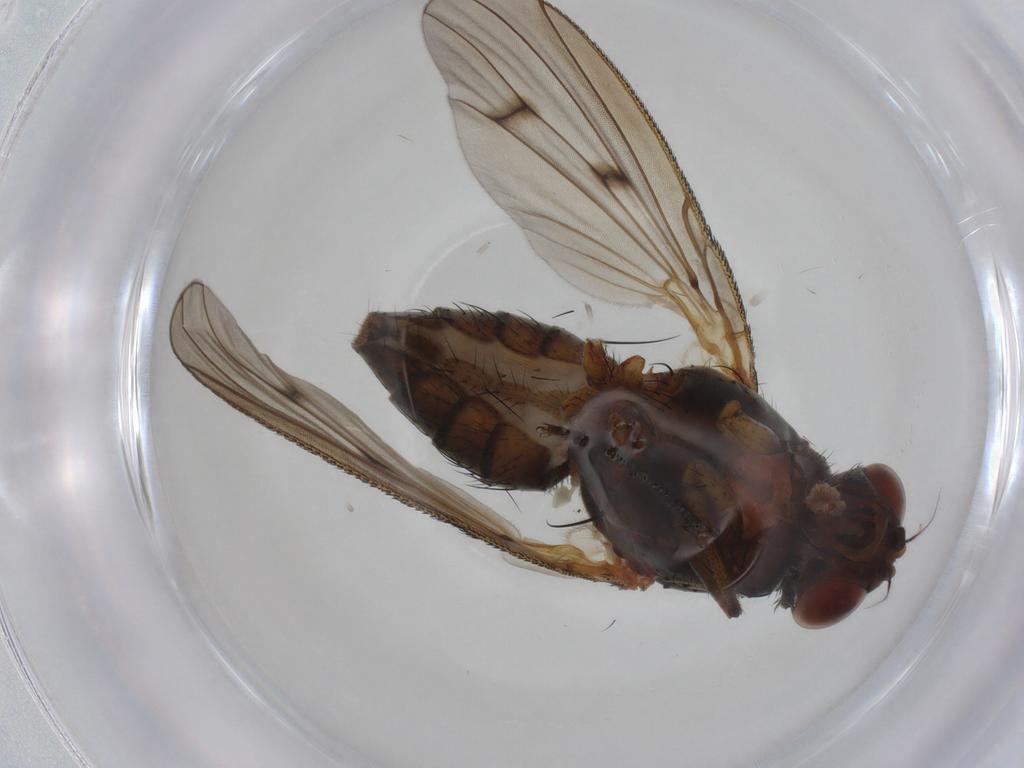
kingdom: Animalia
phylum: Arthropoda
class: Insecta
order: Diptera
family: Anthomyiidae
